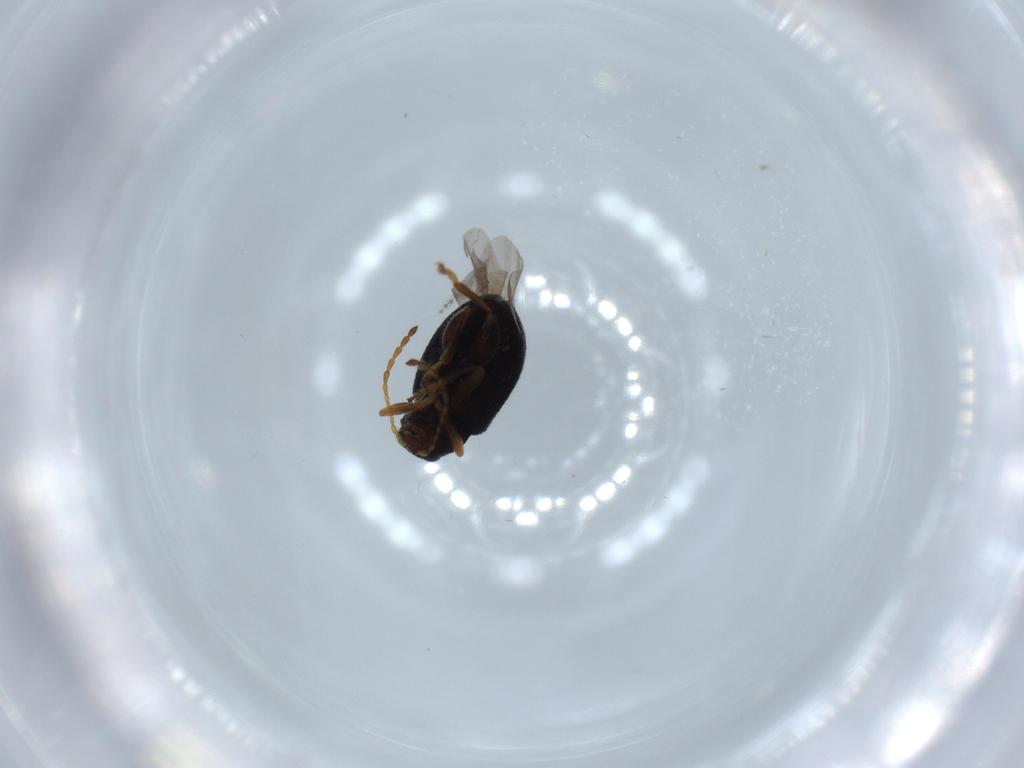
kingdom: Animalia
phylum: Arthropoda
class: Insecta
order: Coleoptera
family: Chrysomelidae
